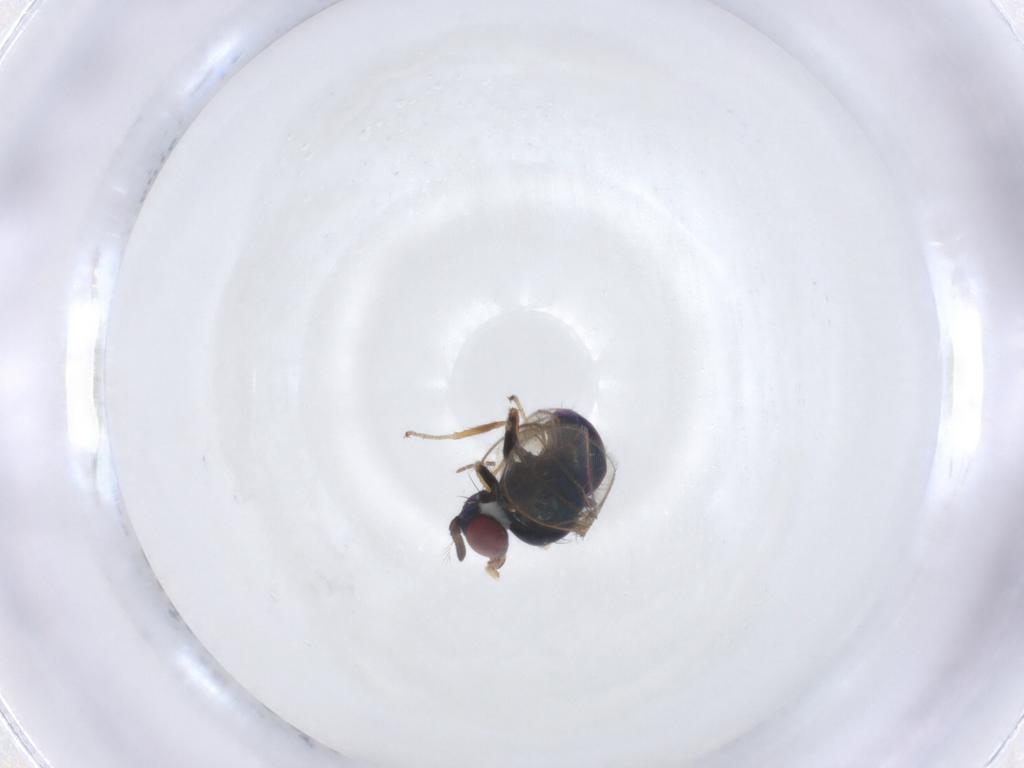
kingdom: Animalia
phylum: Arthropoda
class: Insecta
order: Diptera
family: Ephydridae
